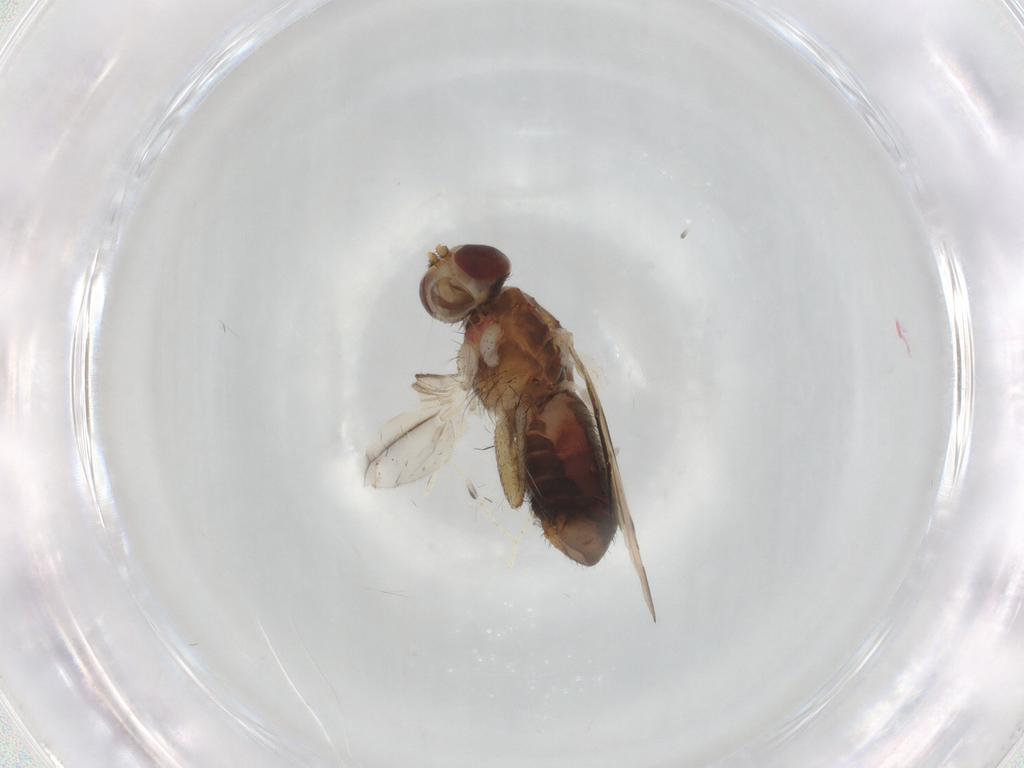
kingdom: Animalia
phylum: Arthropoda
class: Insecta
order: Diptera
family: Heleomyzidae
